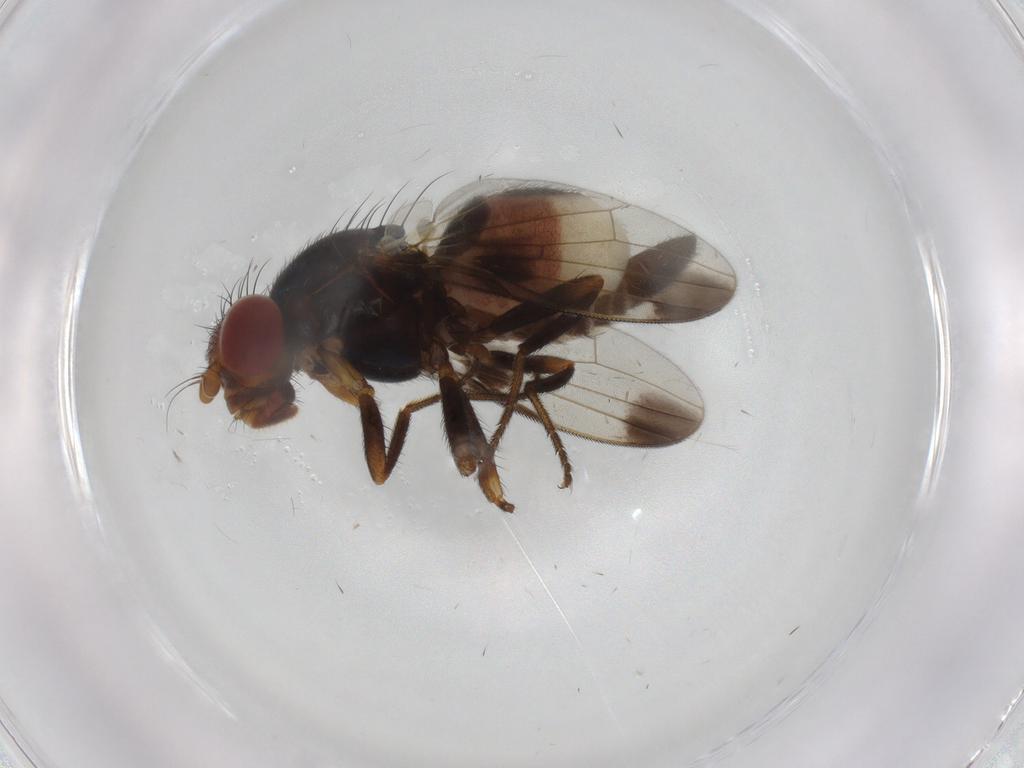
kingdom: Animalia
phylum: Arthropoda
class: Insecta
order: Diptera
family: Ulidiidae
